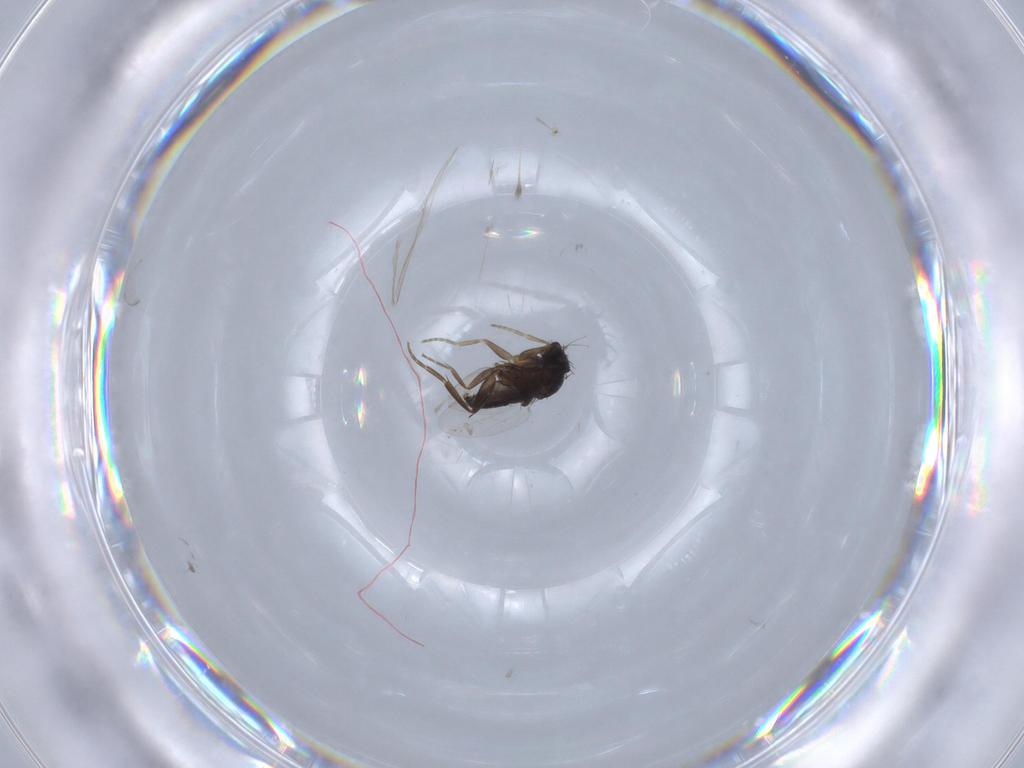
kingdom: Animalia
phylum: Arthropoda
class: Insecta
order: Diptera
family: Phoridae
